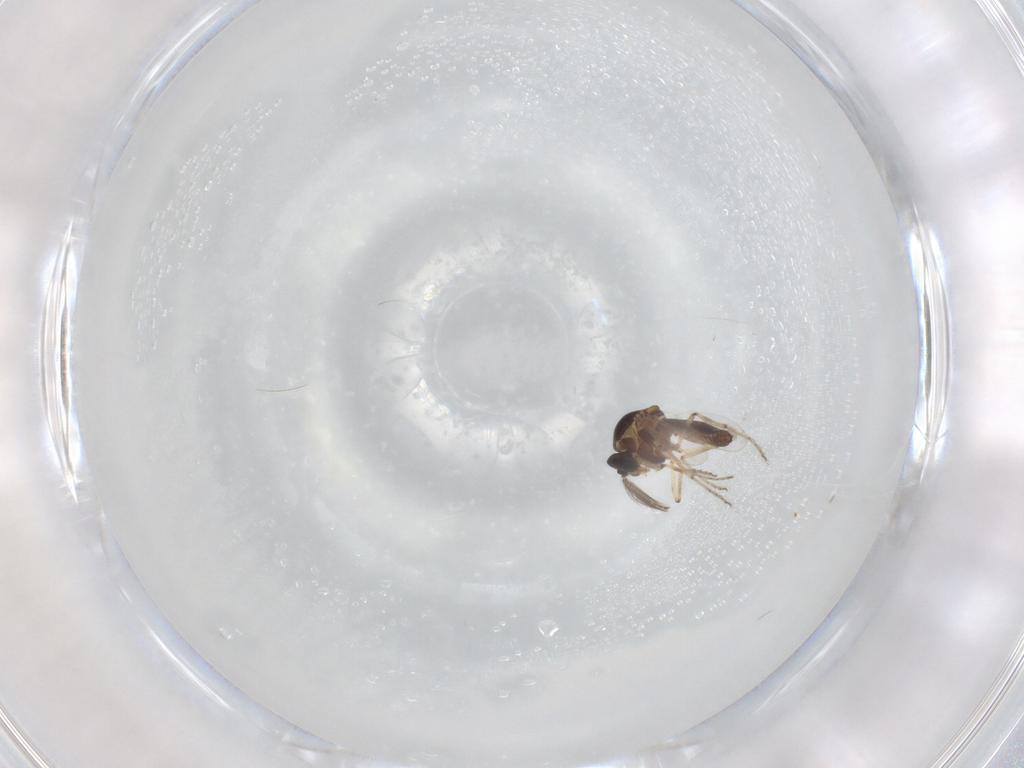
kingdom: Animalia
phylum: Arthropoda
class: Insecta
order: Diptera
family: Ceratopogonidae
